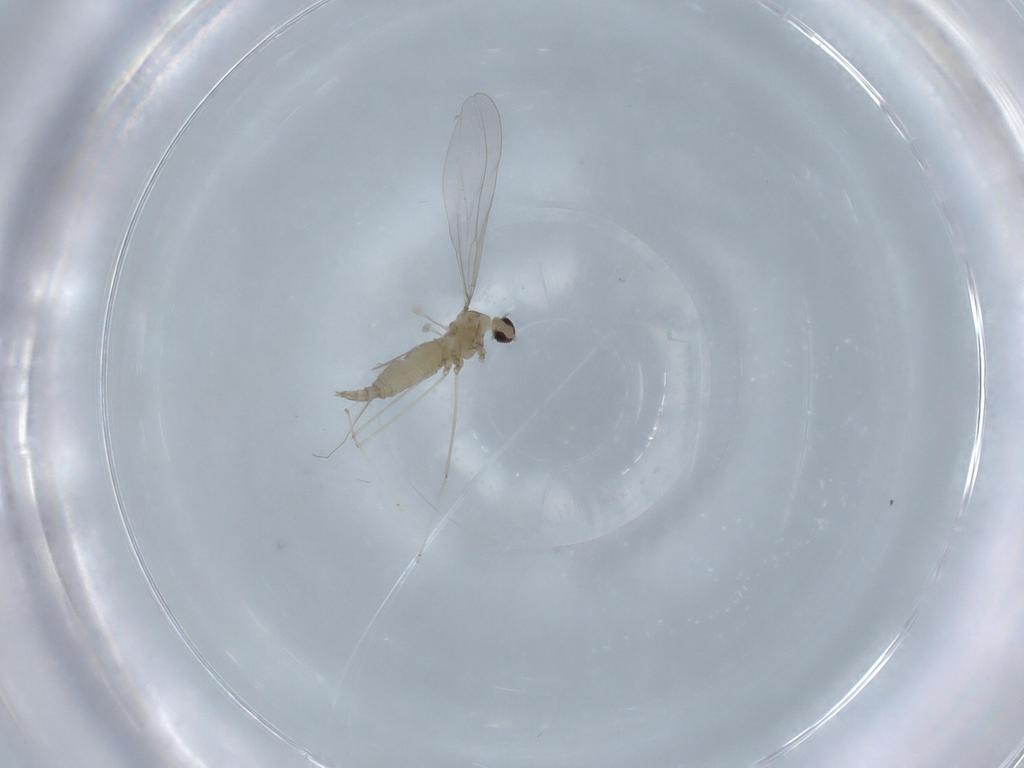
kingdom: Animalia
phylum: Arthropoda
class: Insecta
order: Diptera
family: Cecidomyiidae
